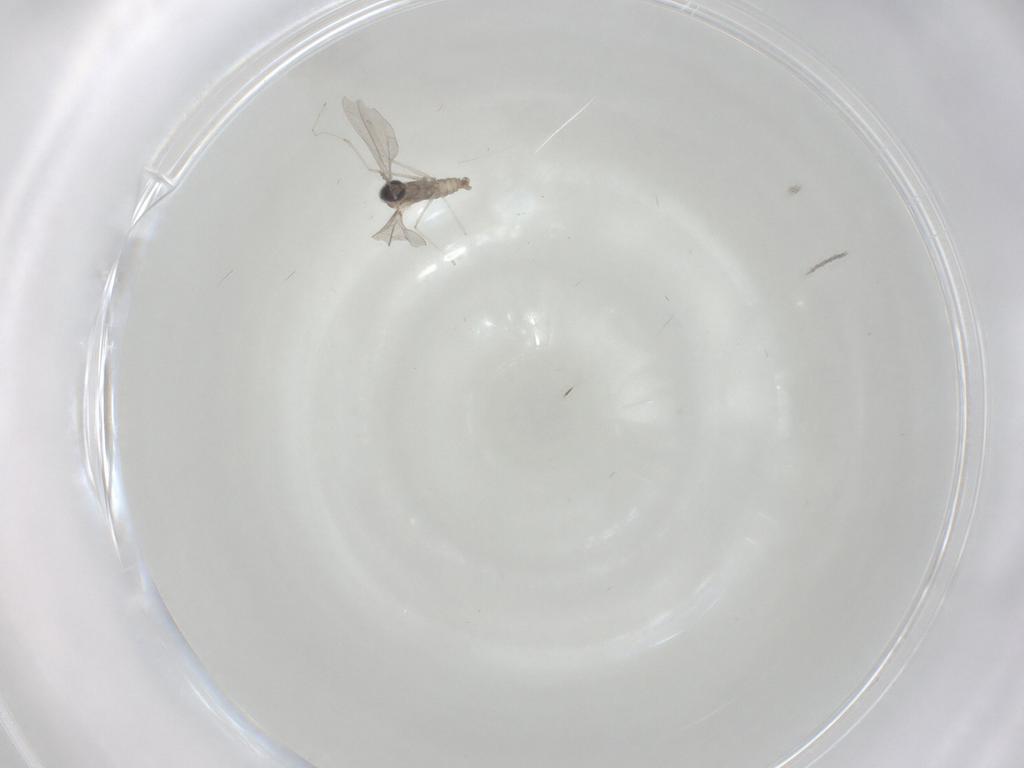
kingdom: Animalia
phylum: Arthropoda
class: Insecta
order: Diptera
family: Cecidomyiidae
